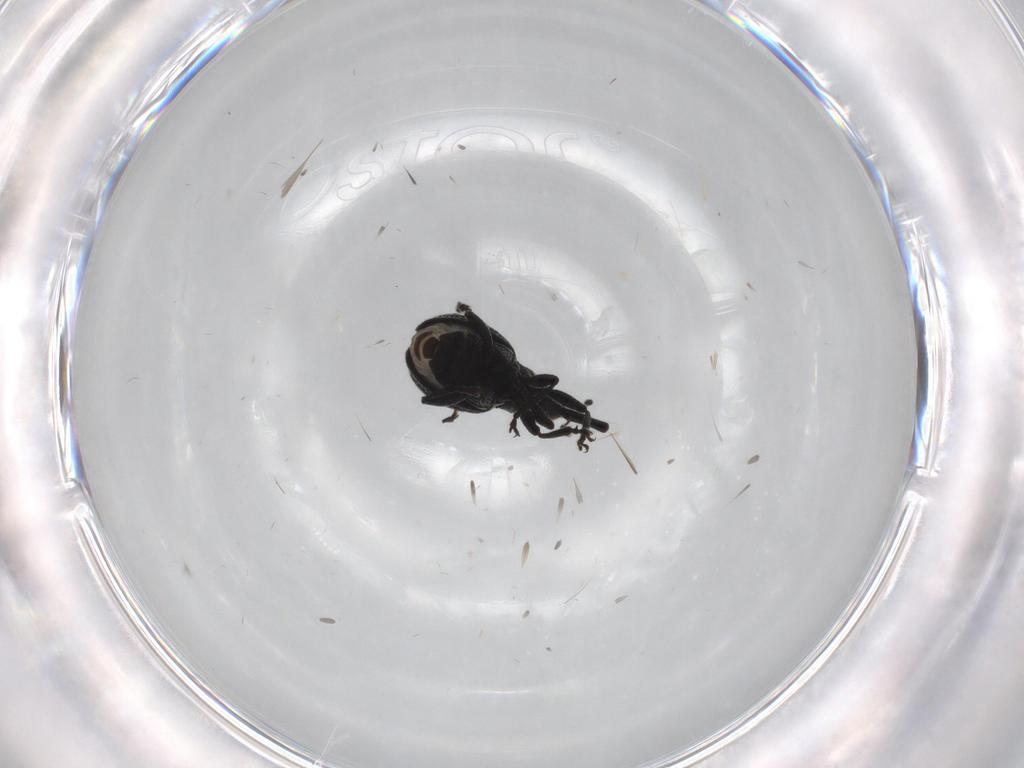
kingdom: Animalia
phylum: Arthropoda
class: Insecta
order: Coleoptera
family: Brentidae
